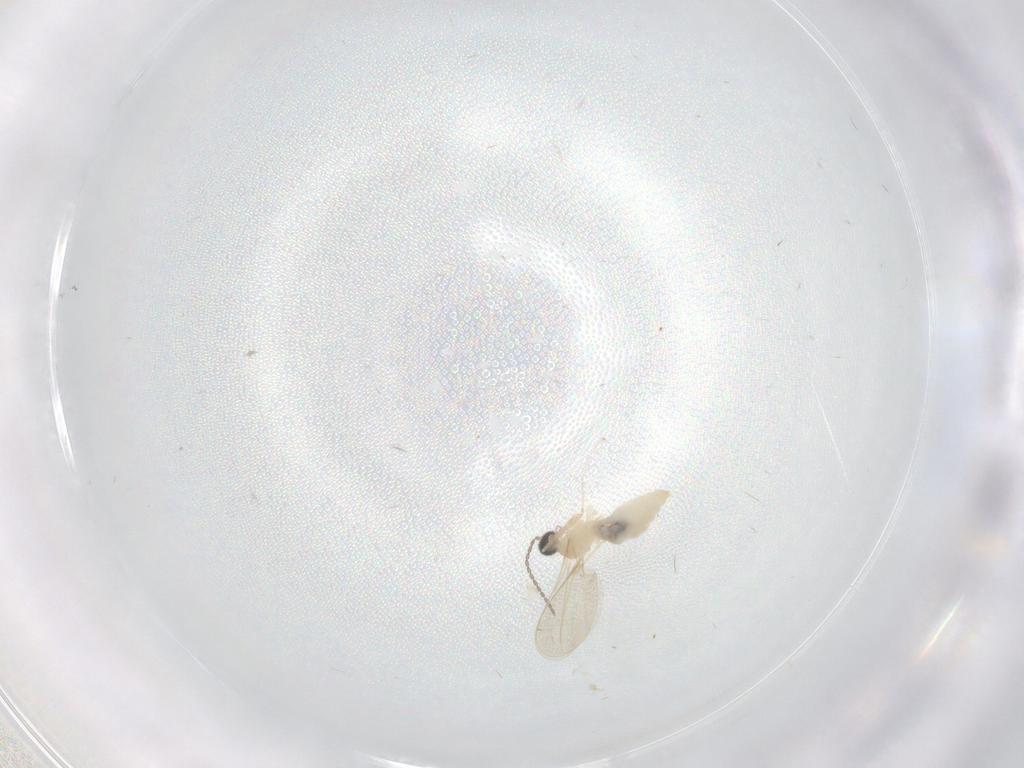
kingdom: Animalia
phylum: Arthropoda
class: Insecta
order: Diptera
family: Cecidomyiidae
